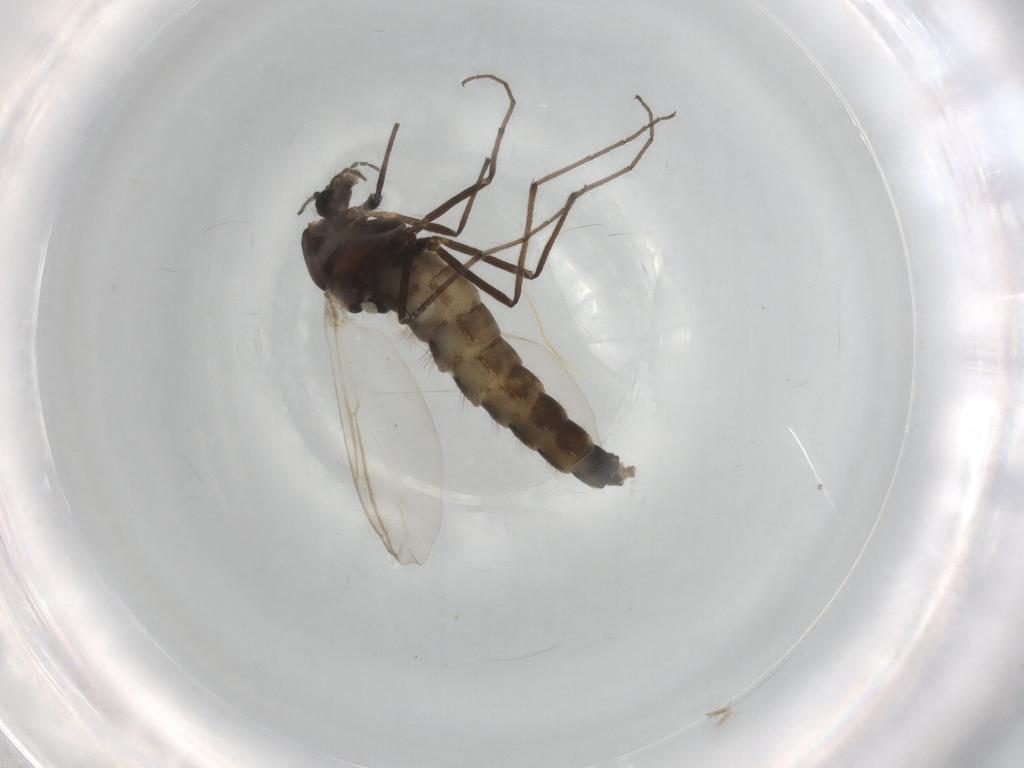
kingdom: Animalia
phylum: Arthropoda
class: Insecta
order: Diptera
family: Anthomyiidae
